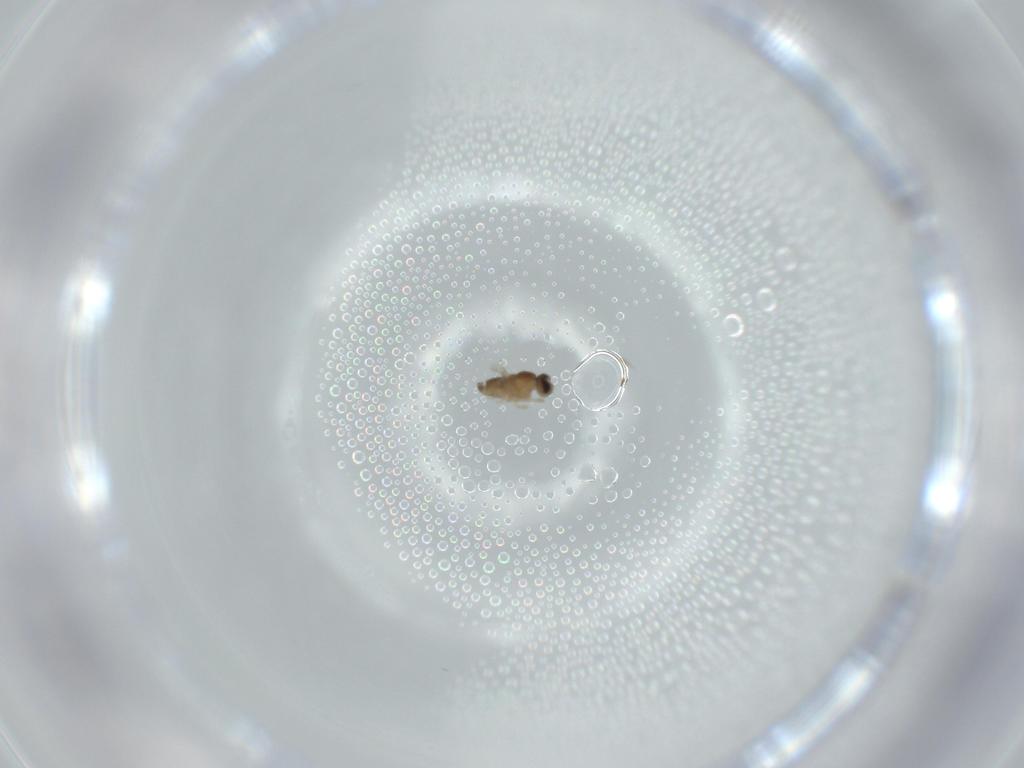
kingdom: Animalia
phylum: Arthropoda
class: Insecta
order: Diptera
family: Cecidomyiidae
